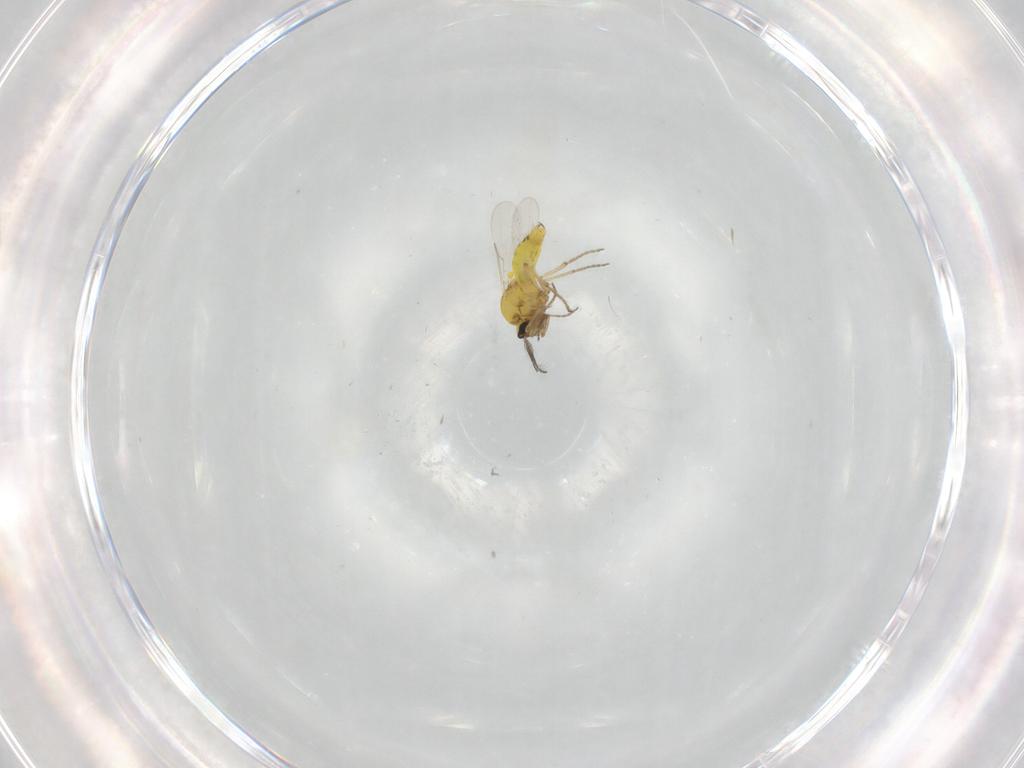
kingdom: Animalia
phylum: Arthropoda
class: Insecta
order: Diptera
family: Ceratopogonidae
